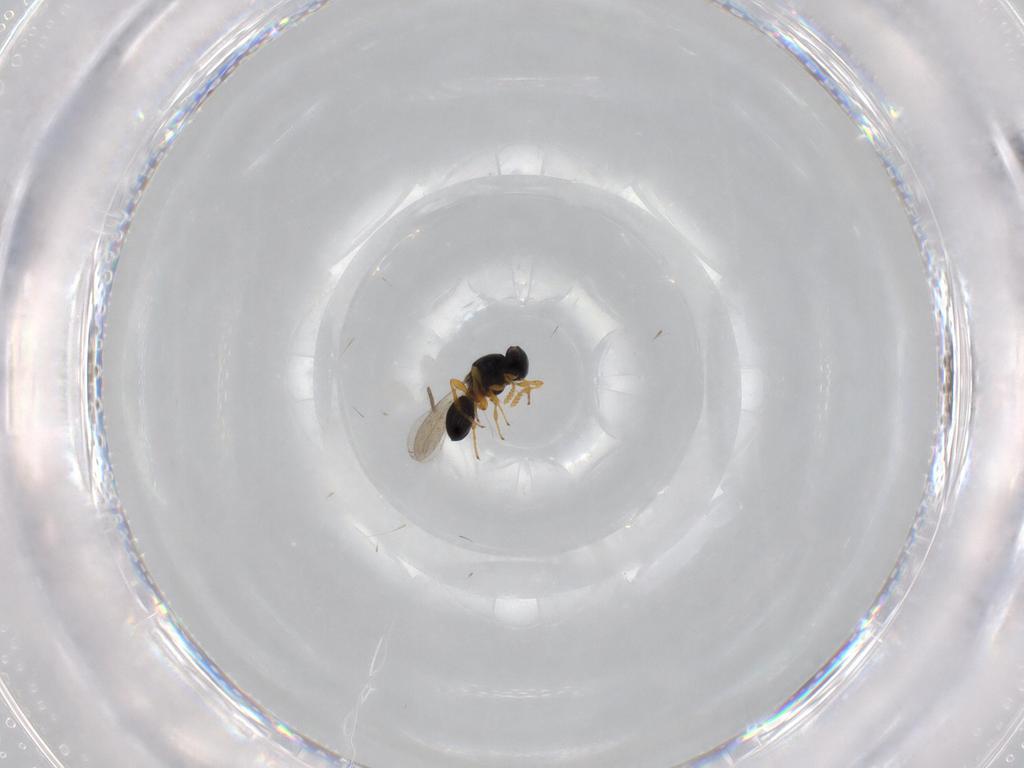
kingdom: Animalia
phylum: Arthropoda
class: Insecta
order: Hymenoptera
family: Platygastridae
